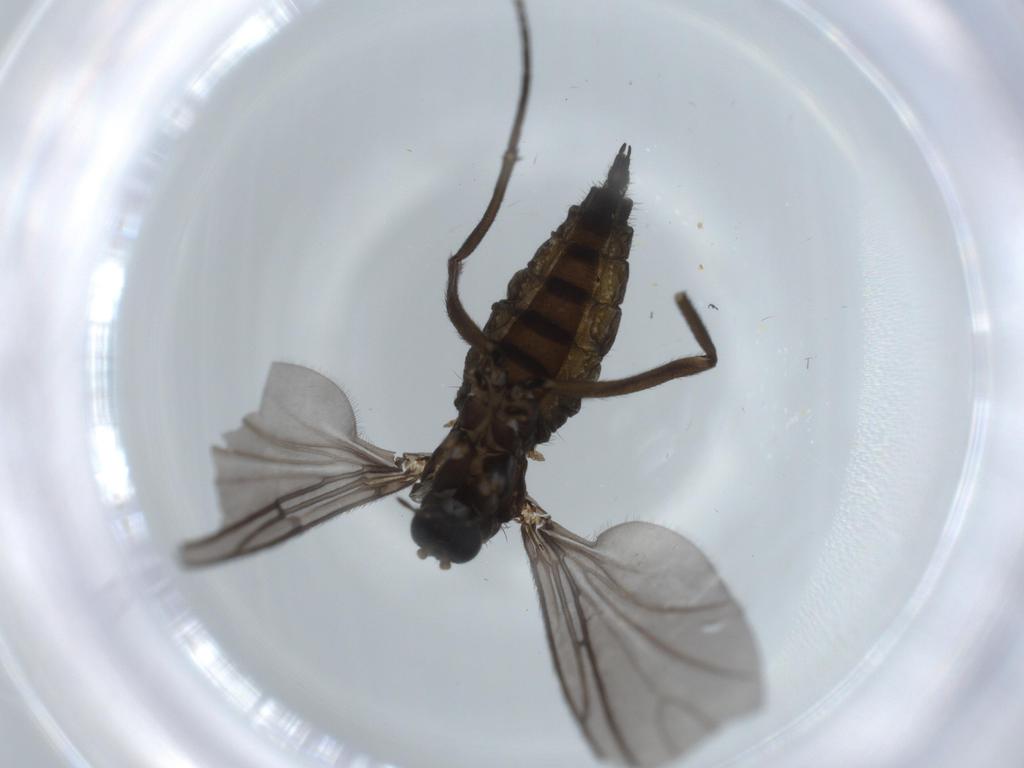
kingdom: Animalia
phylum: Arthropoda
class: Insecta
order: Diptera
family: Sciaridae
